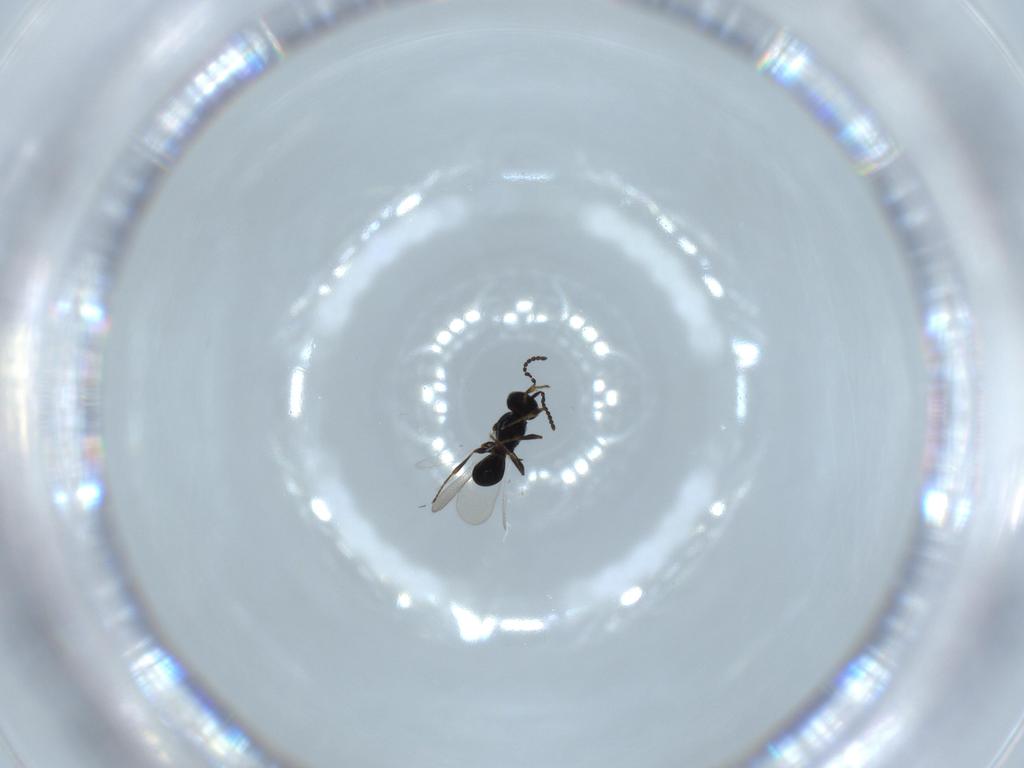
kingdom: Animalia
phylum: Arthropoda
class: Insecta
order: Hymenoptera
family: Platygastridae
